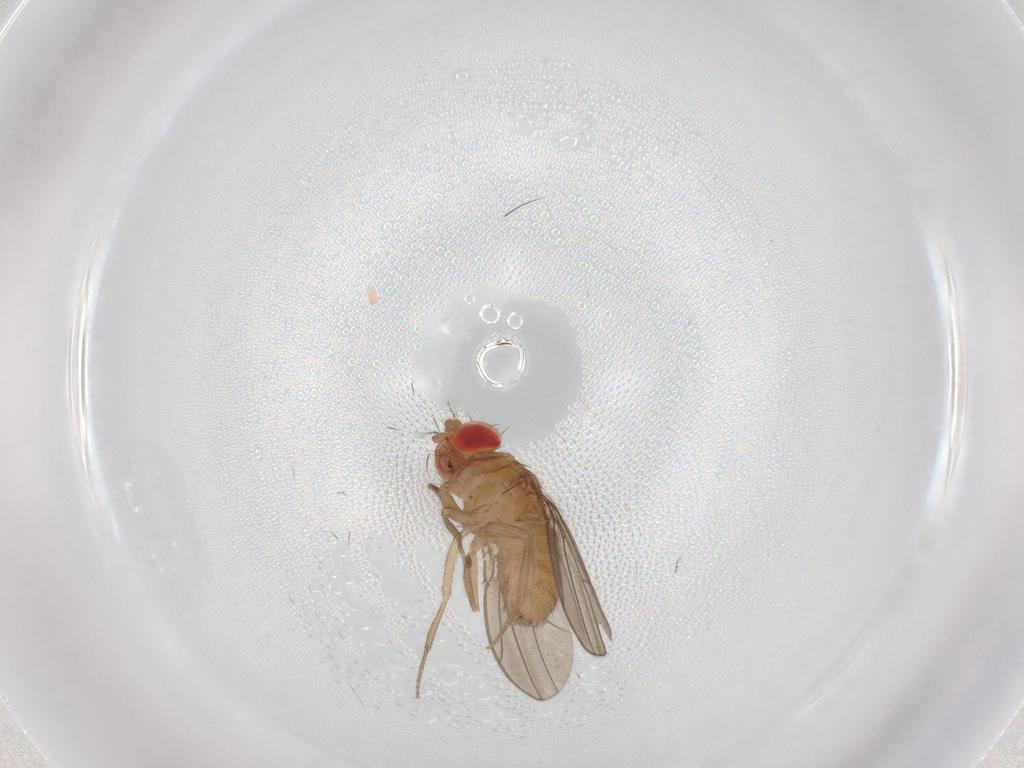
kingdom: Animalia
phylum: Arthropoda
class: Insecta
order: Diptera
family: Drosophilidae
